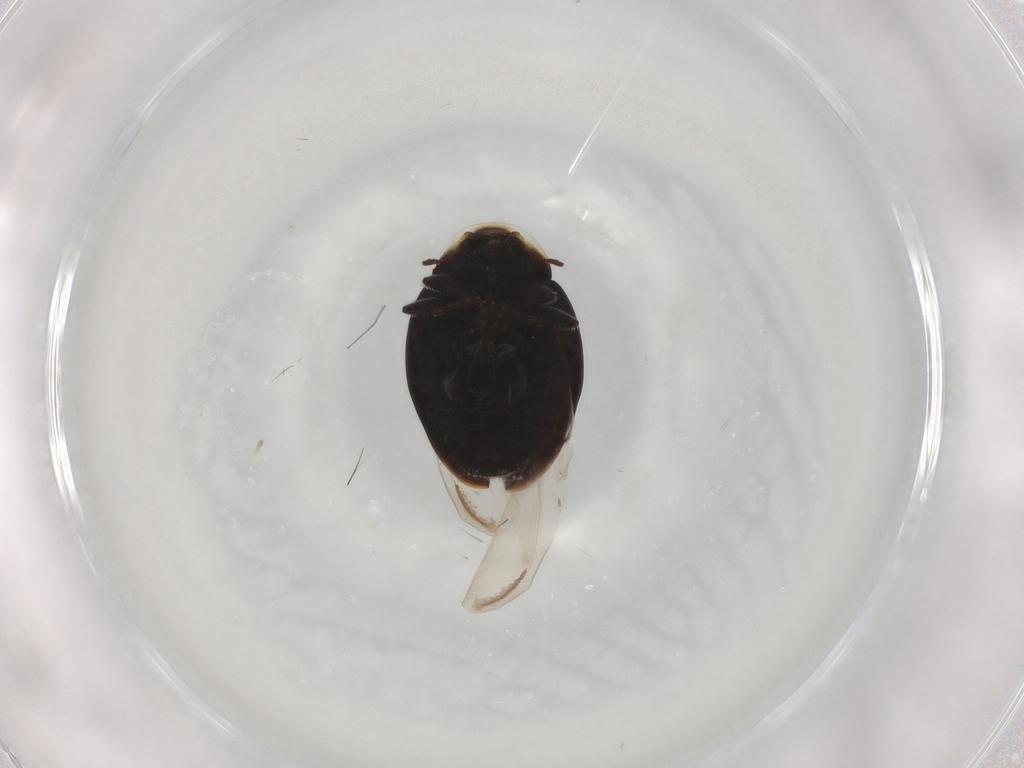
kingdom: Animalia
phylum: Arthropoda
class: Insecta
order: Coleoptera
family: Coccinellidae
